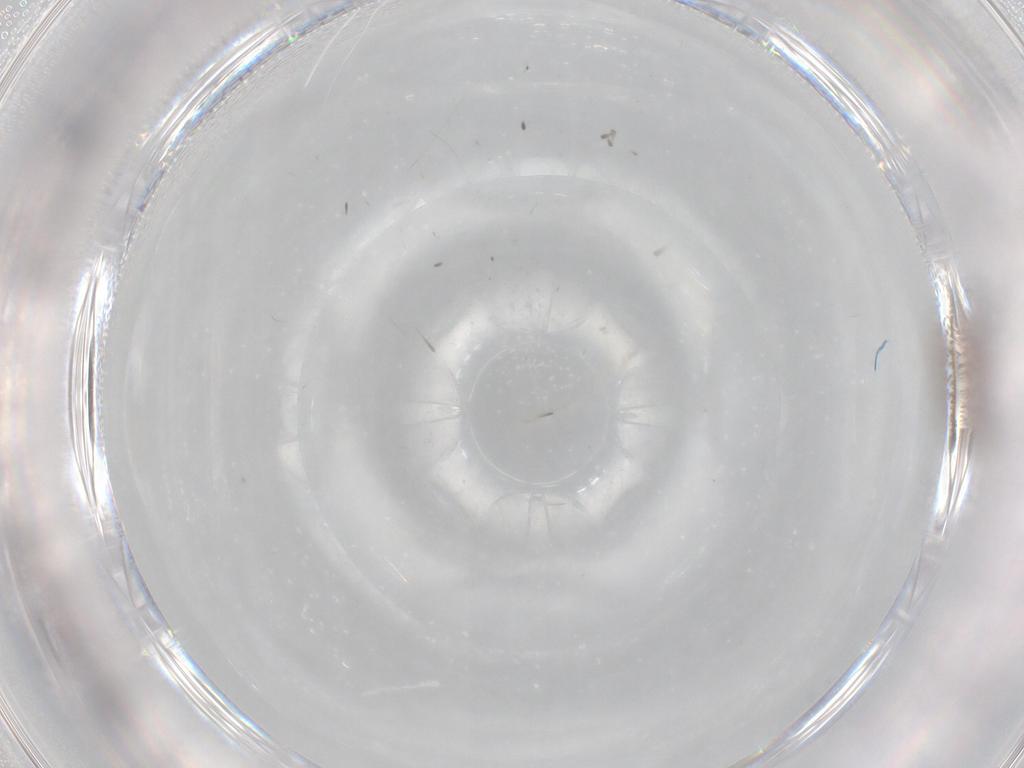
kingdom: Animalia
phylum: Arthropoda
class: Insecta
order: Diptera
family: Cecidomyiidae
